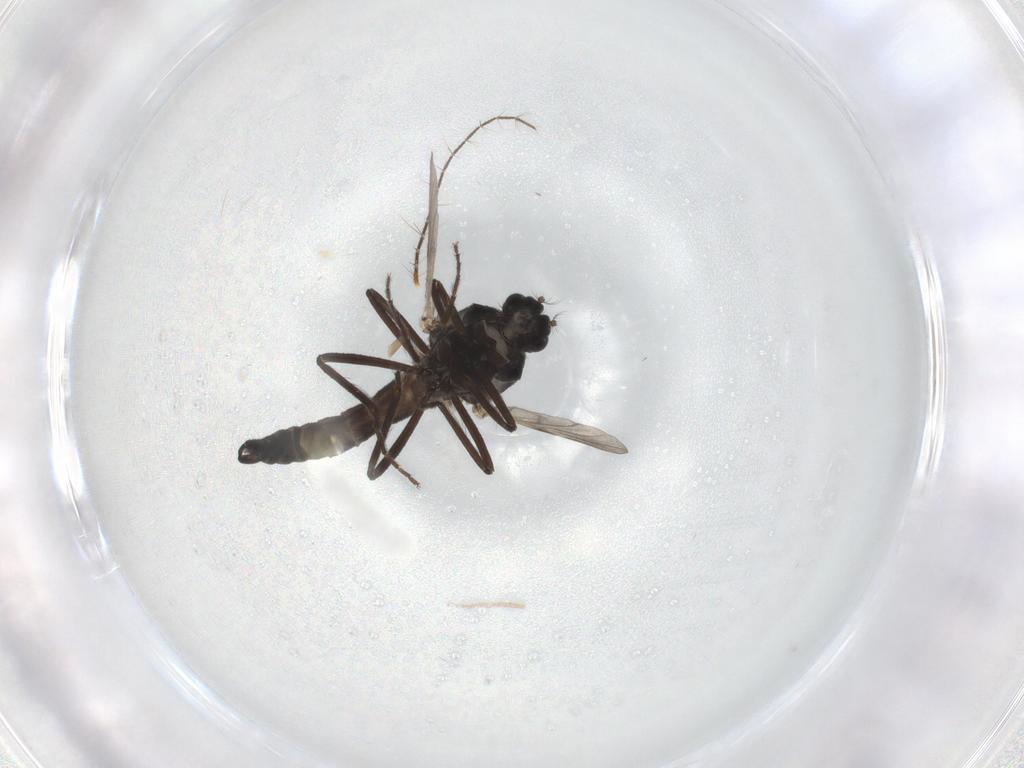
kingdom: Animalia
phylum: Arthropoda
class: Insecta
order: Diptera
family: Ceratopogonidae
